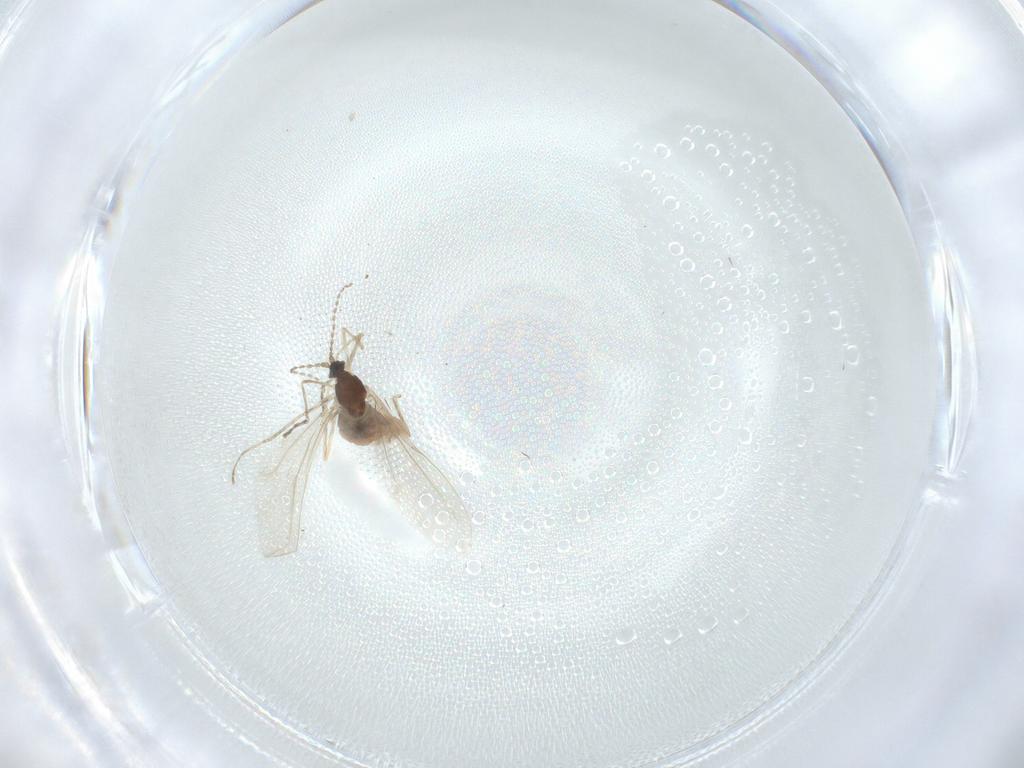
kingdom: Animalia
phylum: Arthropoda
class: Insecta
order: Diptera
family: Cecidomyiidae
